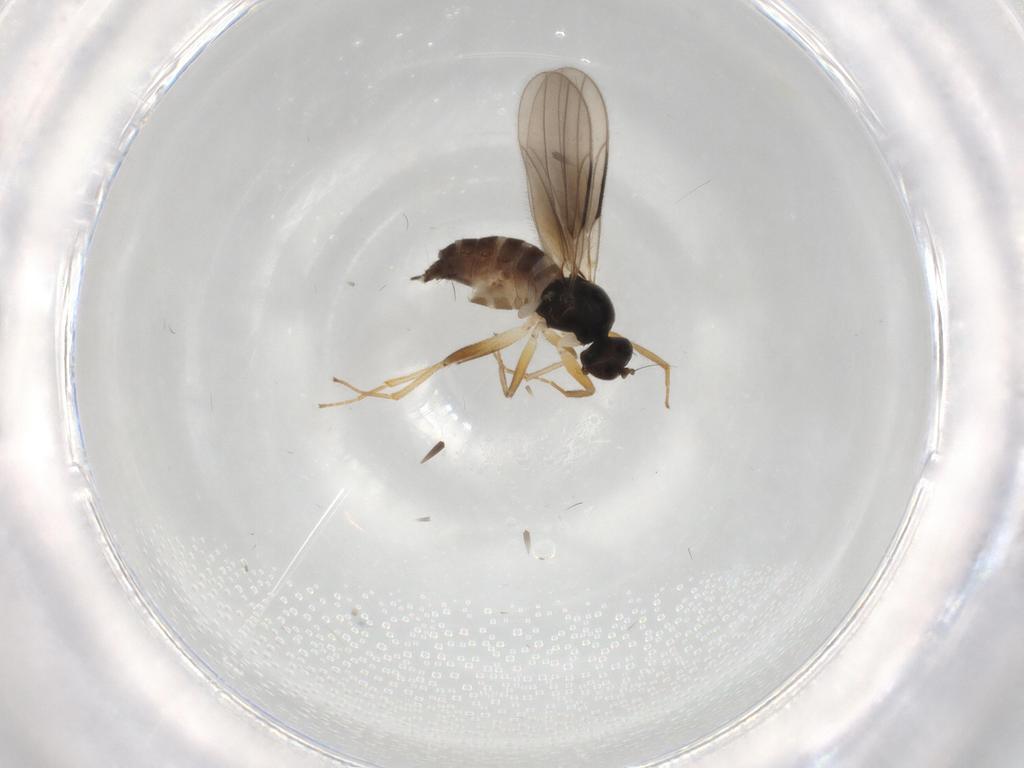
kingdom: Animalia
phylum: Arthropoda
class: Insecta
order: Diptera
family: Hybotidae
